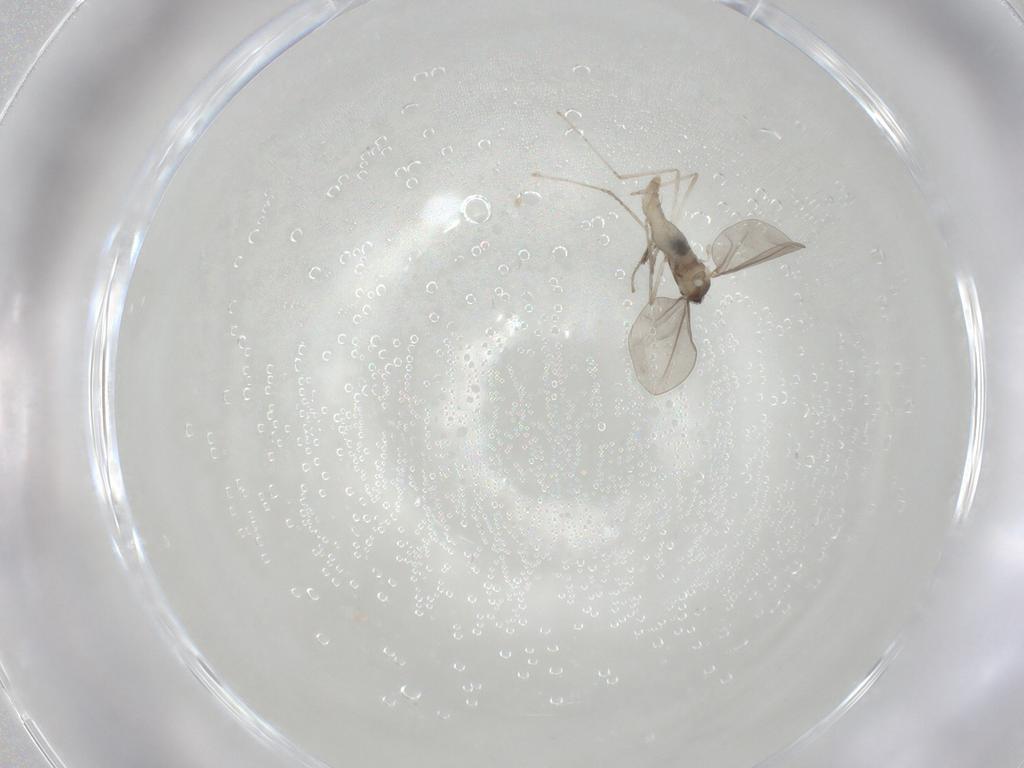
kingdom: Animalia
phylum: Arthropoda
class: Insecta
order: Diptera
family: Cecidomyiidae
